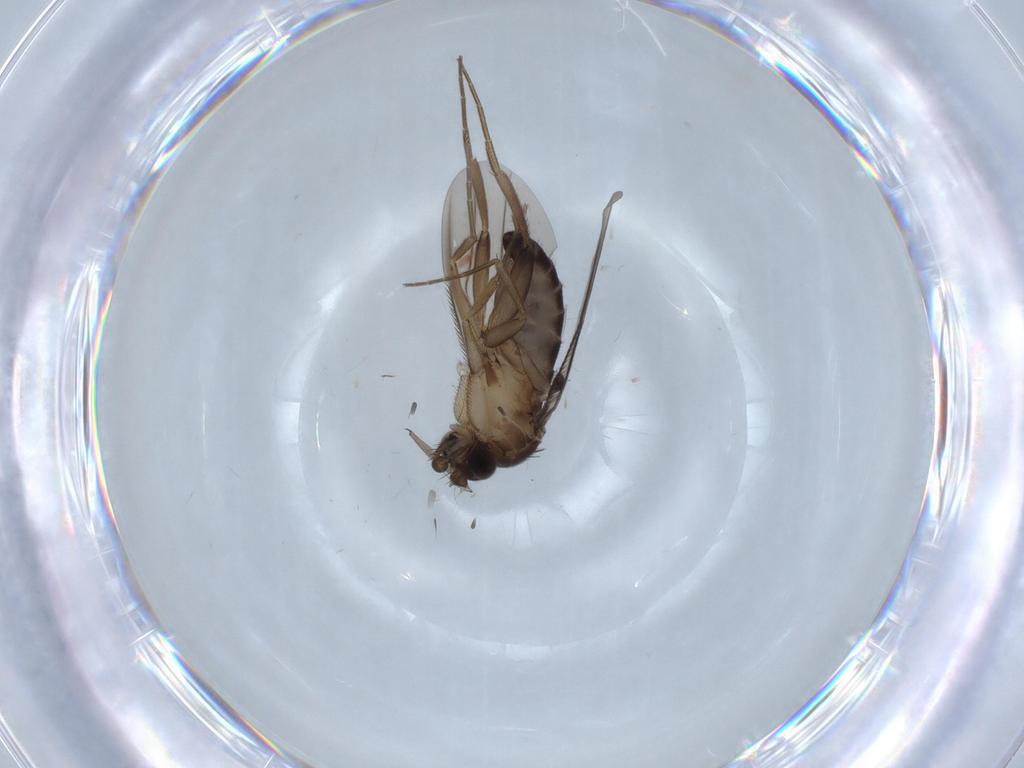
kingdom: Animalia
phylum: Arthropoda
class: Insecta
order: Diptera
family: Phoridae
